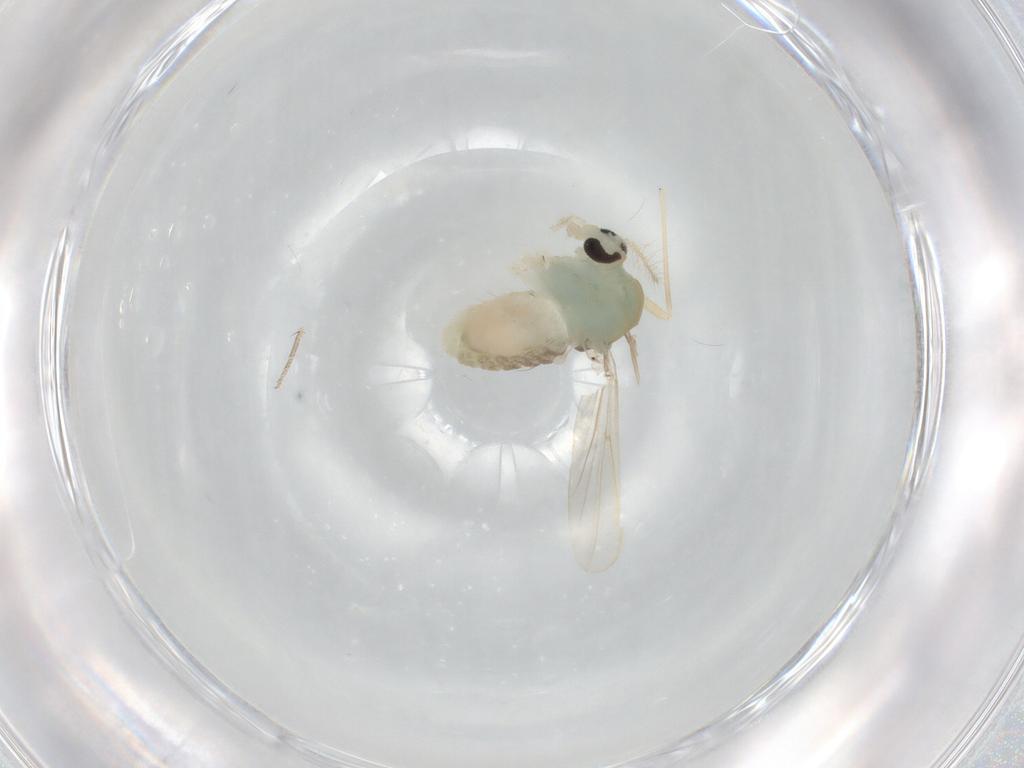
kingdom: Animalia
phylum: Arthropoda
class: Insecta
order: Diptera
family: Chironomidae
